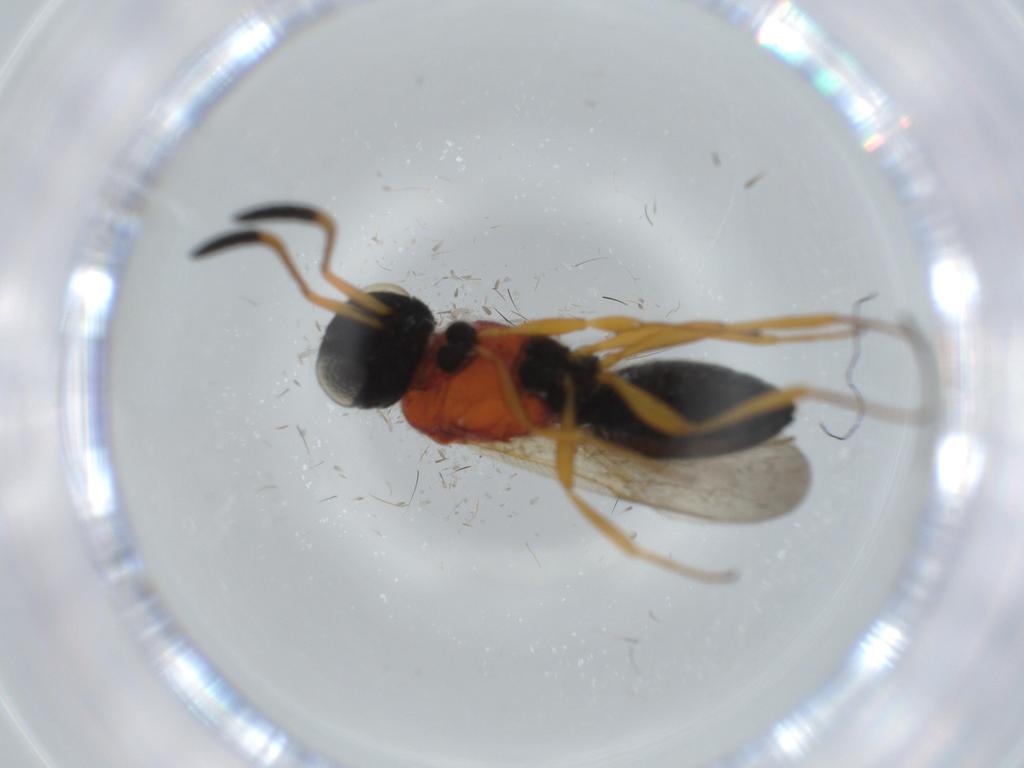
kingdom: Animalia
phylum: Arthropoda
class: Insecta
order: Hymenoptera
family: Scelionidae
